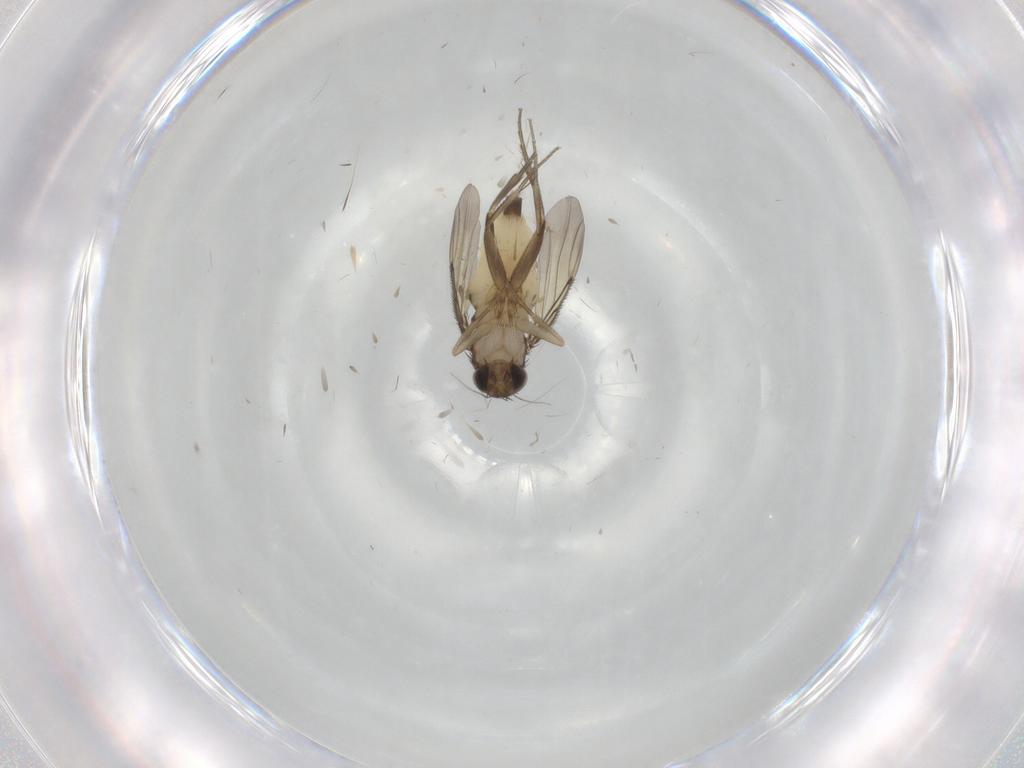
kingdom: Animalia
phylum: Arthropoda
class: Insecta
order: Diptera
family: Phoridae
